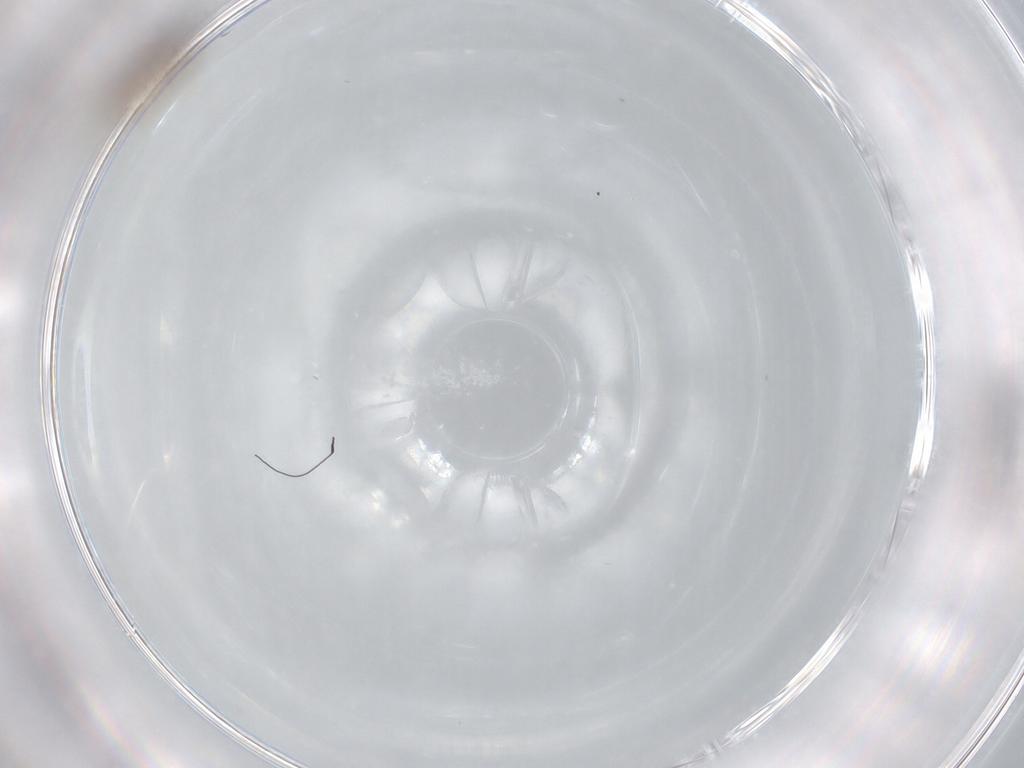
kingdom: Animalia
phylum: Arthropoda
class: Insecta
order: Diptera
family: Cecidomyiidae
